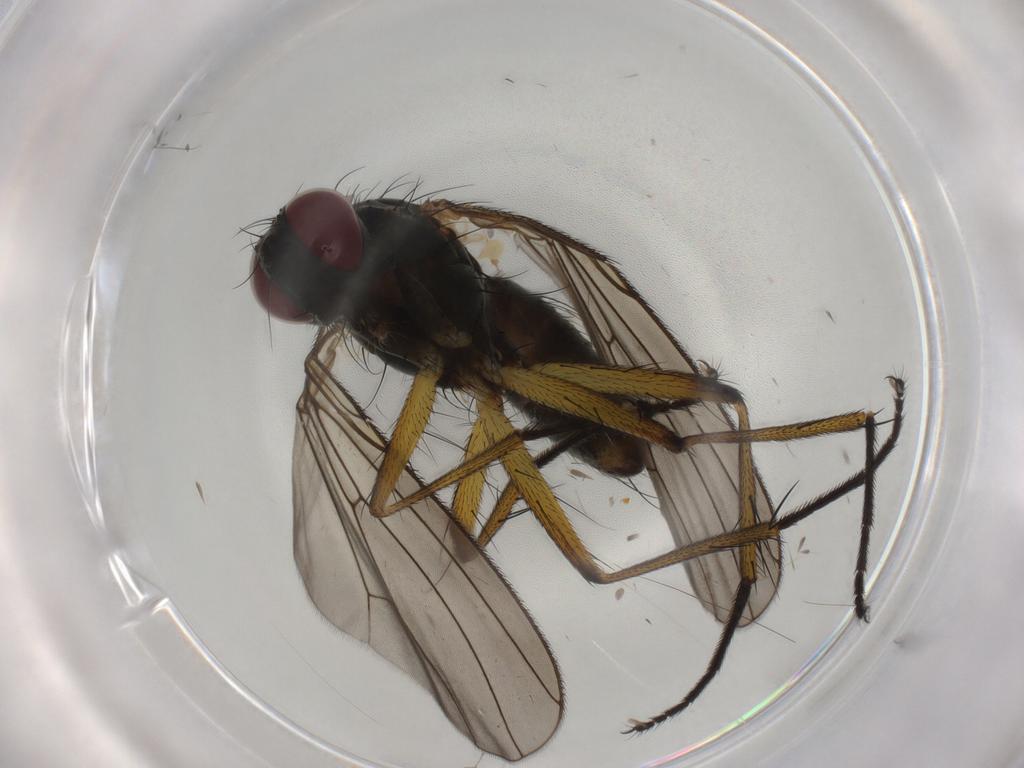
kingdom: Animalia
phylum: Arthropoda
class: Insecta
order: Diptera
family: Muscidae
